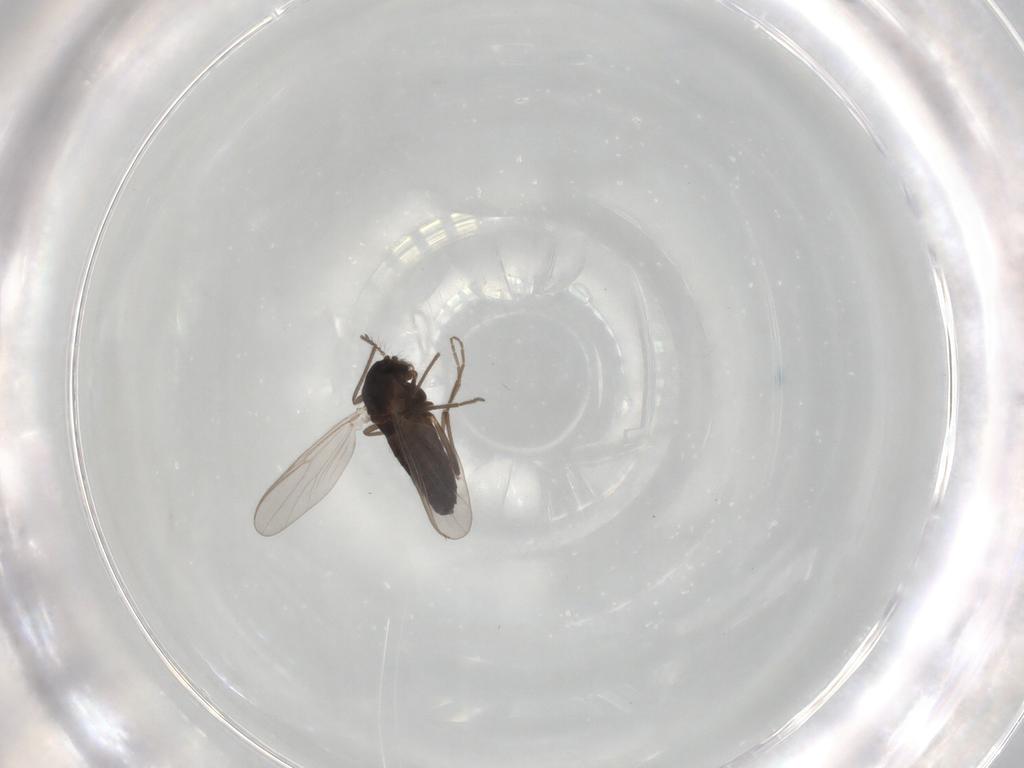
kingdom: Animalia
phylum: Arthropoda
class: Insecta
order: Diptera
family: Chironomidae
